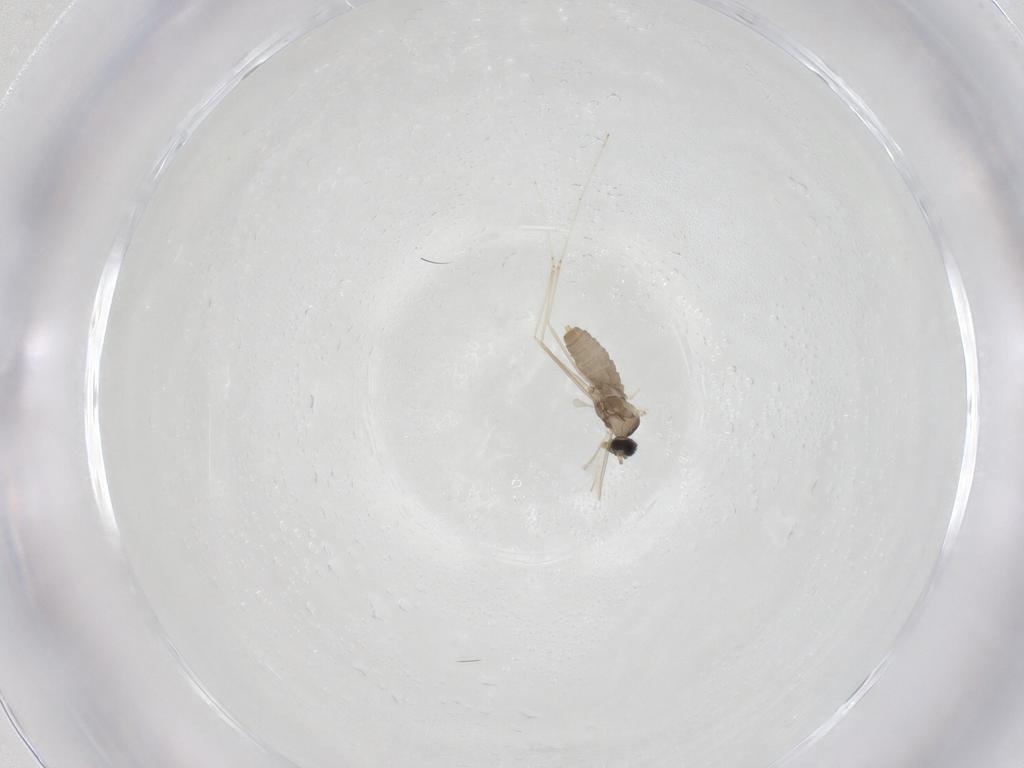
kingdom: Animalia
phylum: Arthropoda
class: Insecta
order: Diptera
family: Cecidomyiidae
